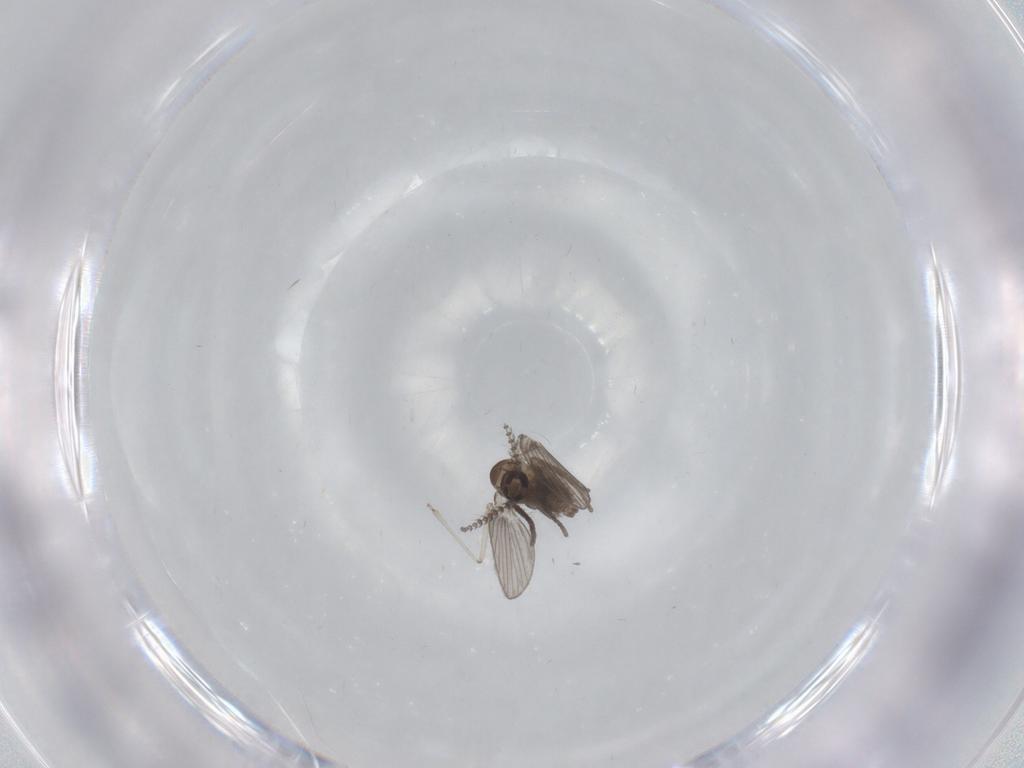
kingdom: Animalia
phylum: Arthropoda
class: Insecta
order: Diptera
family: Psychodidae
